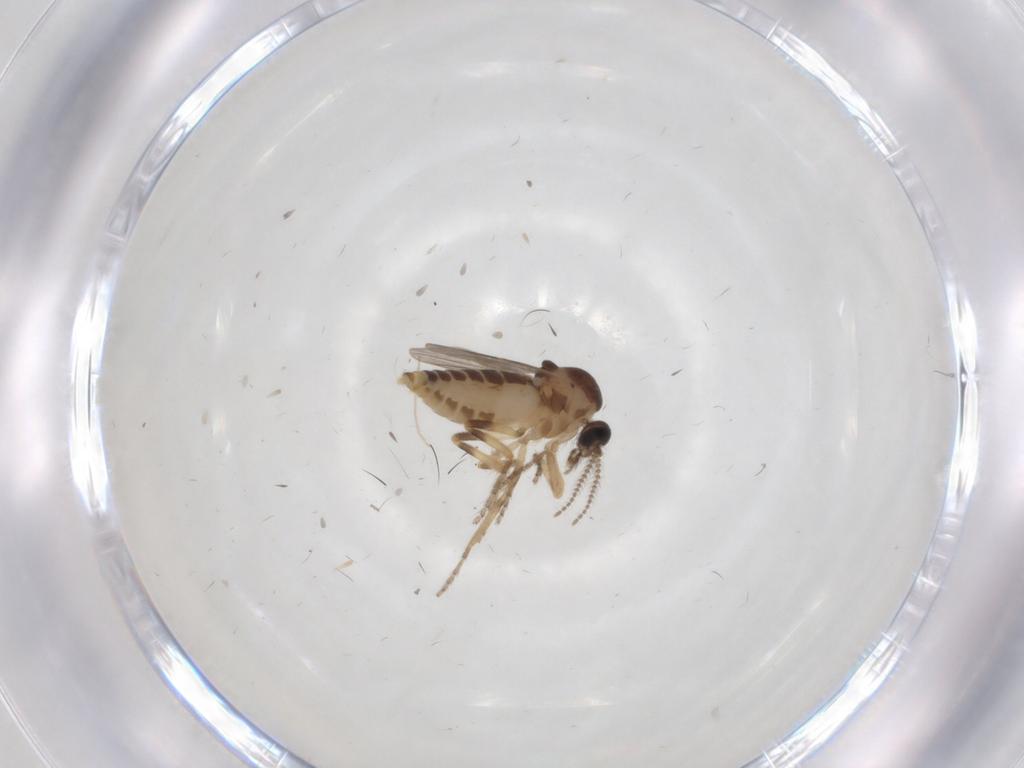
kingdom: Animalia
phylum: Arthropoda
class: Insecta
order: Diptera
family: Ceratopogonidae
